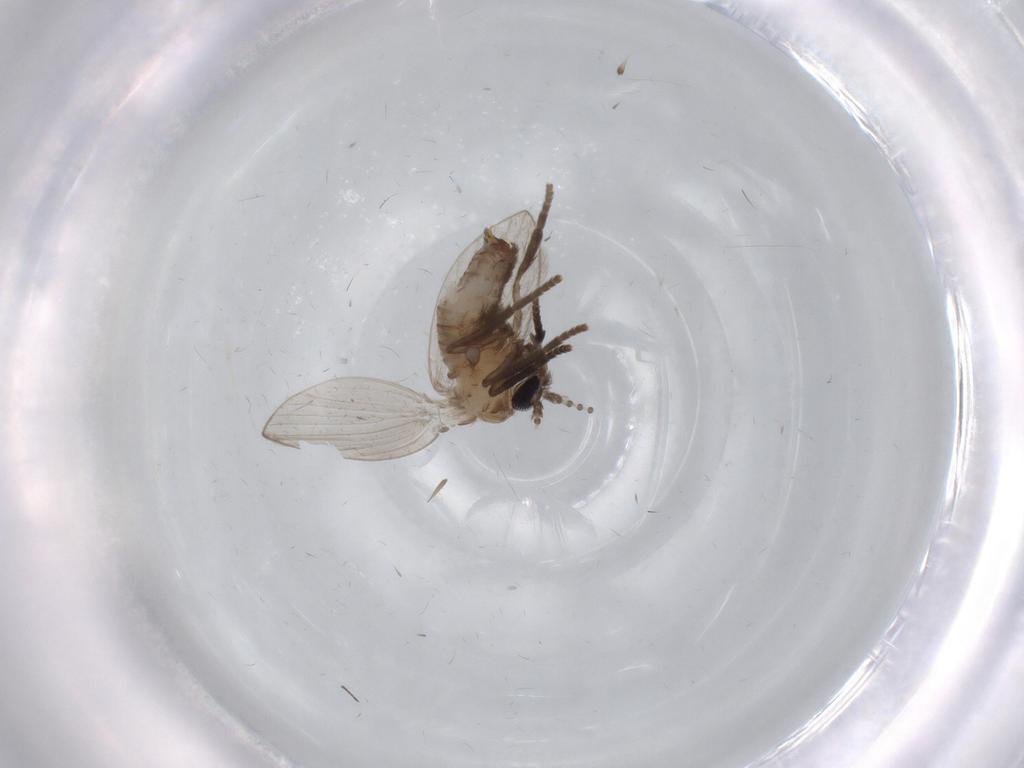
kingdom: Animalia
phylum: Arthropoda
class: Insecta
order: Diptera
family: Psychodidae
